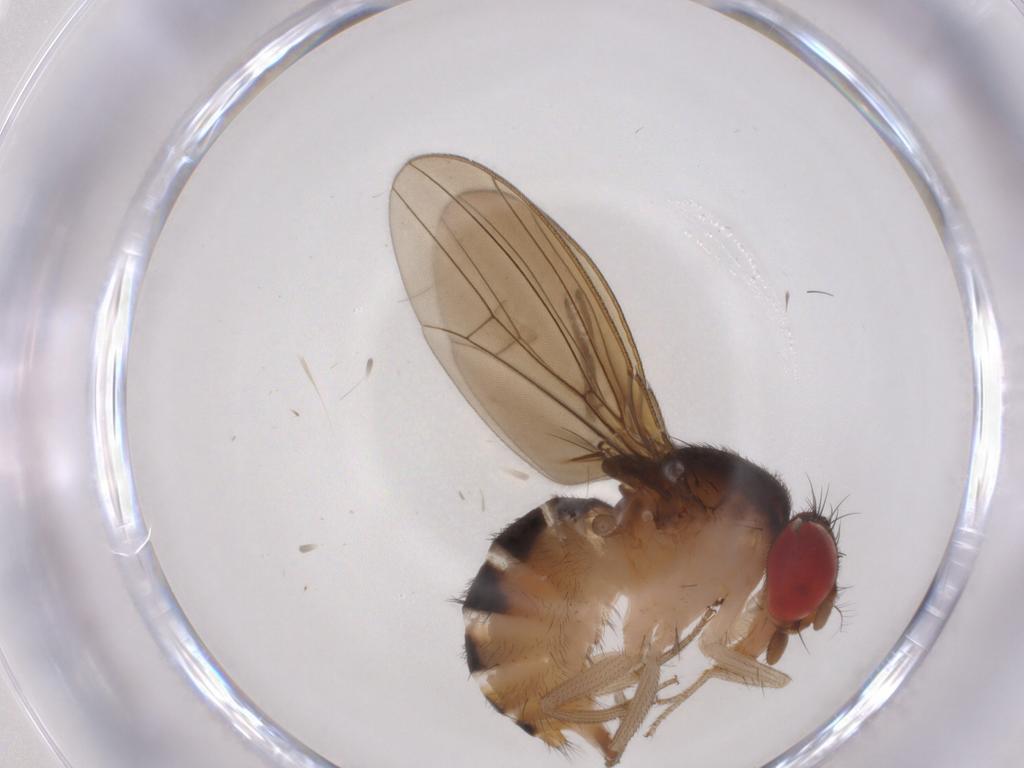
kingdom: Animalia
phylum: Arthropoda
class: Insecta
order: Diptera
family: Drosophilidae
